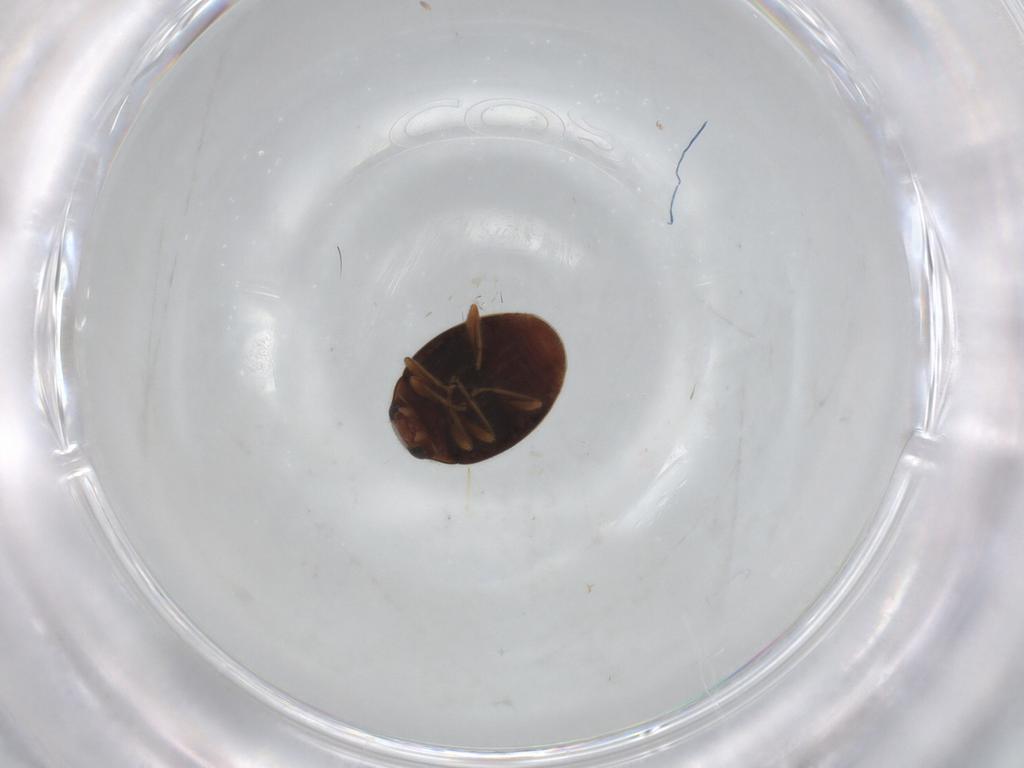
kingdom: Animalia
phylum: Arthropoda
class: Insecta
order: Coleoptera
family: Coccinellidae
